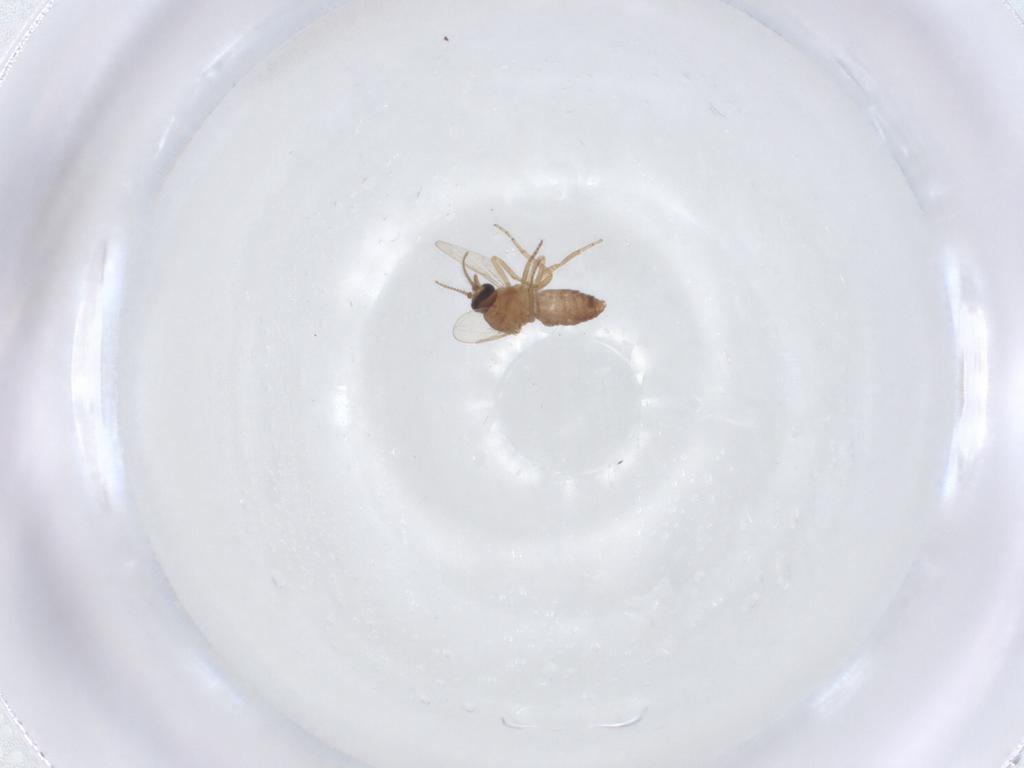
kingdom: Animalia
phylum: Arthropoda
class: Insecta
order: Diptera
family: Ceratopogonidae
